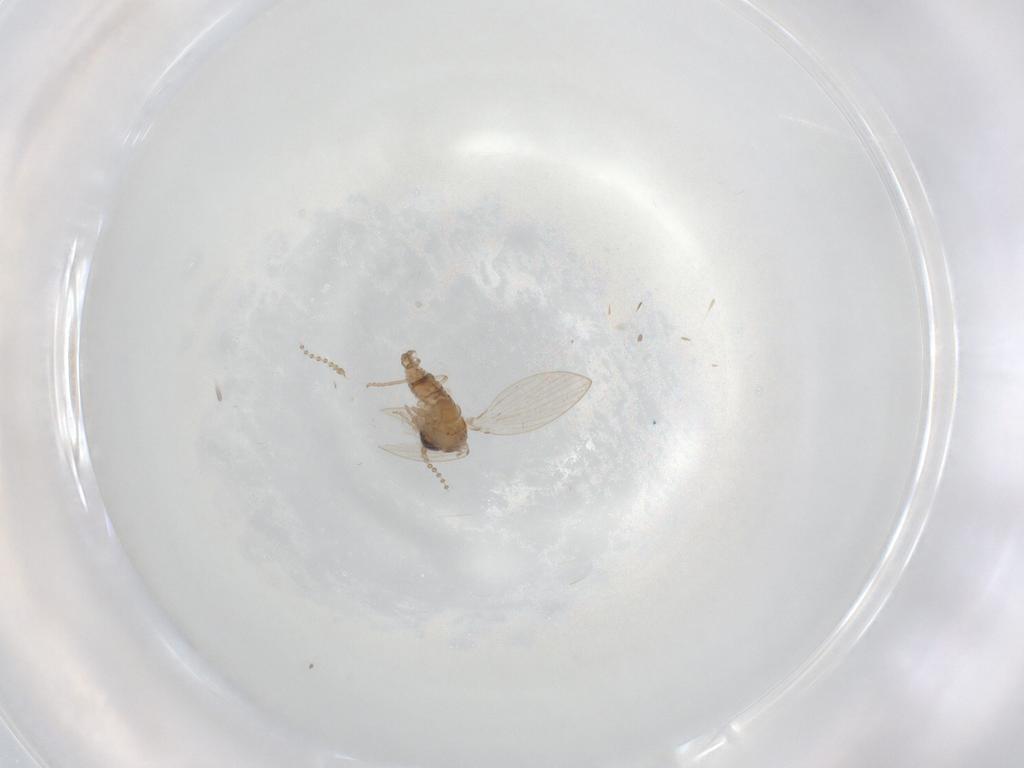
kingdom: Animalia
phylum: Arthropoda
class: Insecta
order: Diptera
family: Psychodidae
